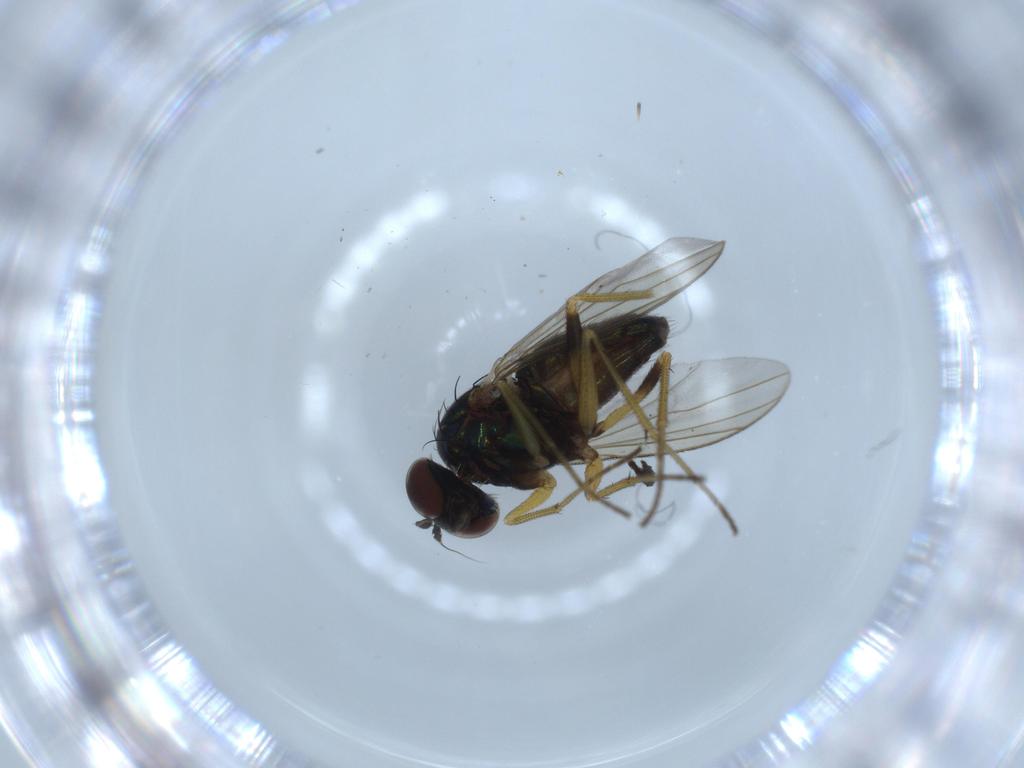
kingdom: Animalia
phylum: Arthropoda
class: Insecta
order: Diptera
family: Dolichopodidae
